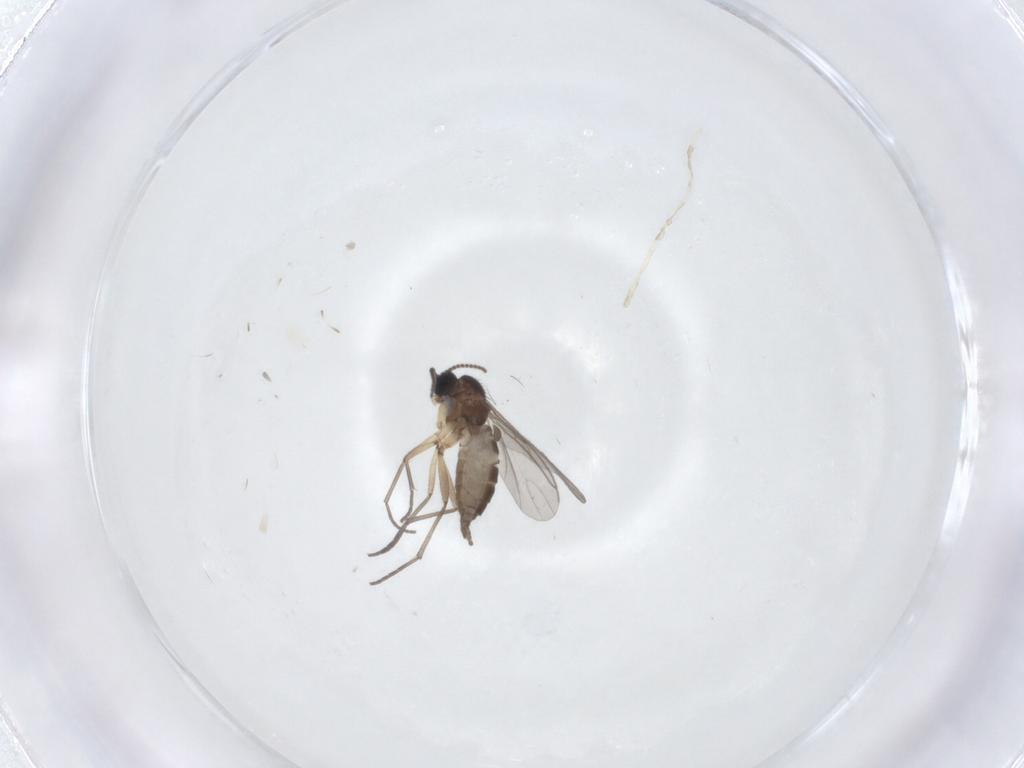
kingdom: Animalia
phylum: Arthropoda
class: Insecta
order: Diptera
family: Sciaridae
